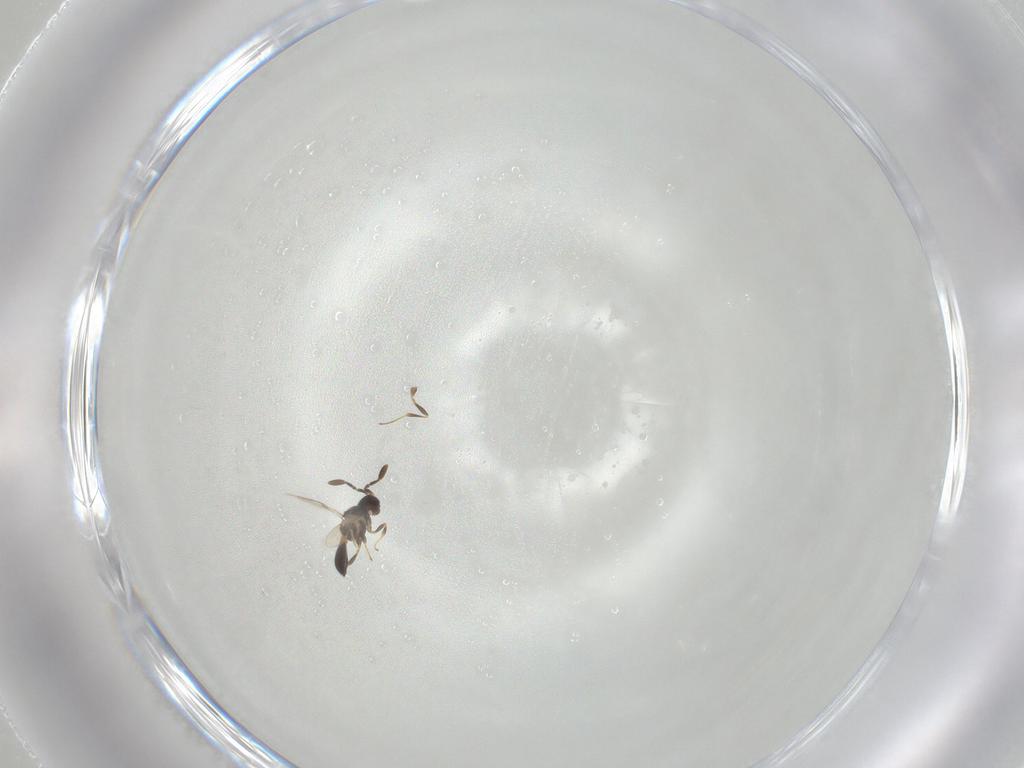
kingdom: Animalia
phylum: Arthropoda
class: Insecta
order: Hymenoptera
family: Scelionidae
